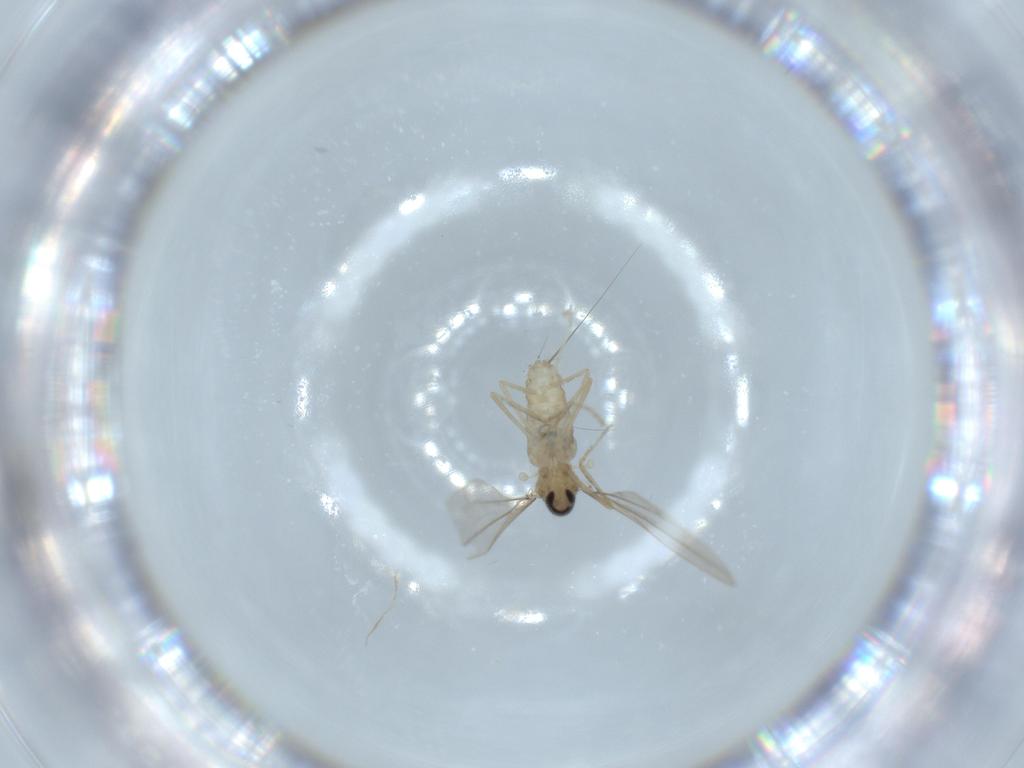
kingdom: Animalia
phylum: Arthropoda
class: Insecta
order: Diptera
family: Cecidomyiidae
